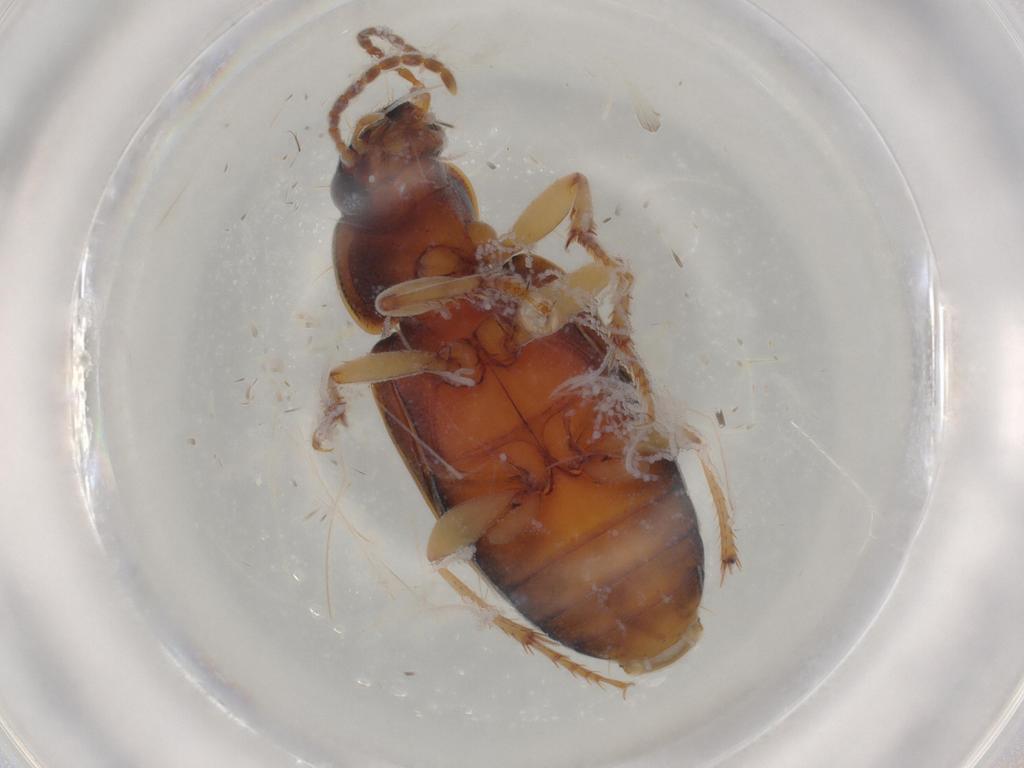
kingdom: Animalia
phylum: Arthropoda
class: Insecta
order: Coleoptera
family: Carabidae
